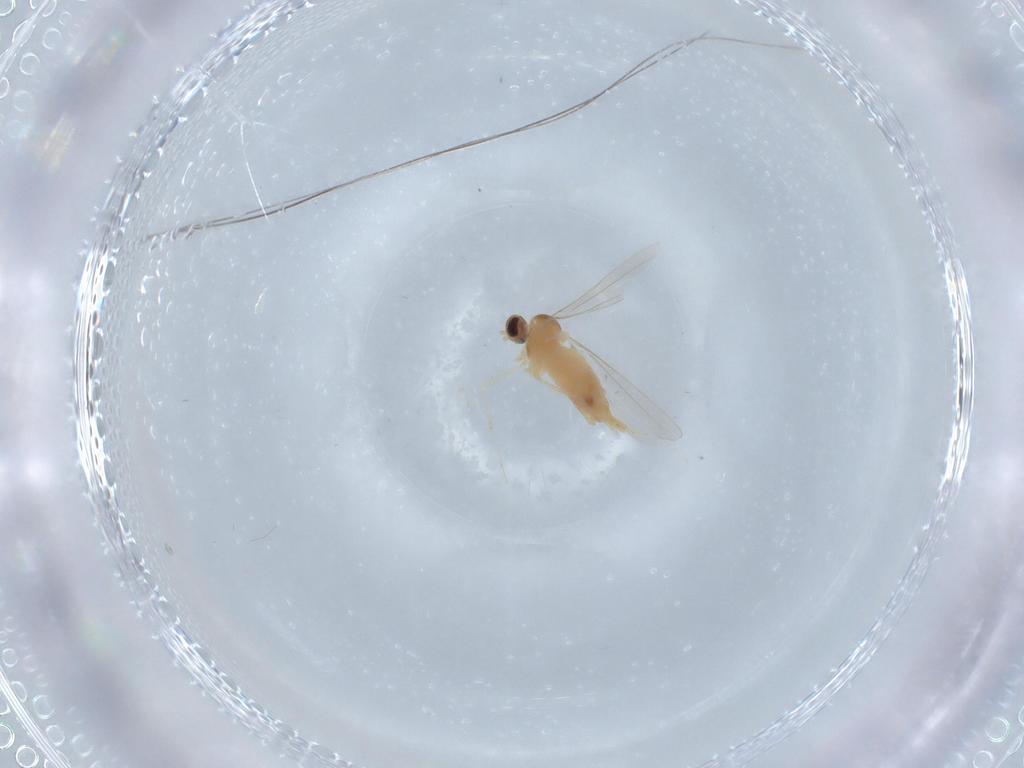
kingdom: Animalia
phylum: Arthropoda
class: Insecta
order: Diptera
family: Cecidomyiidae
